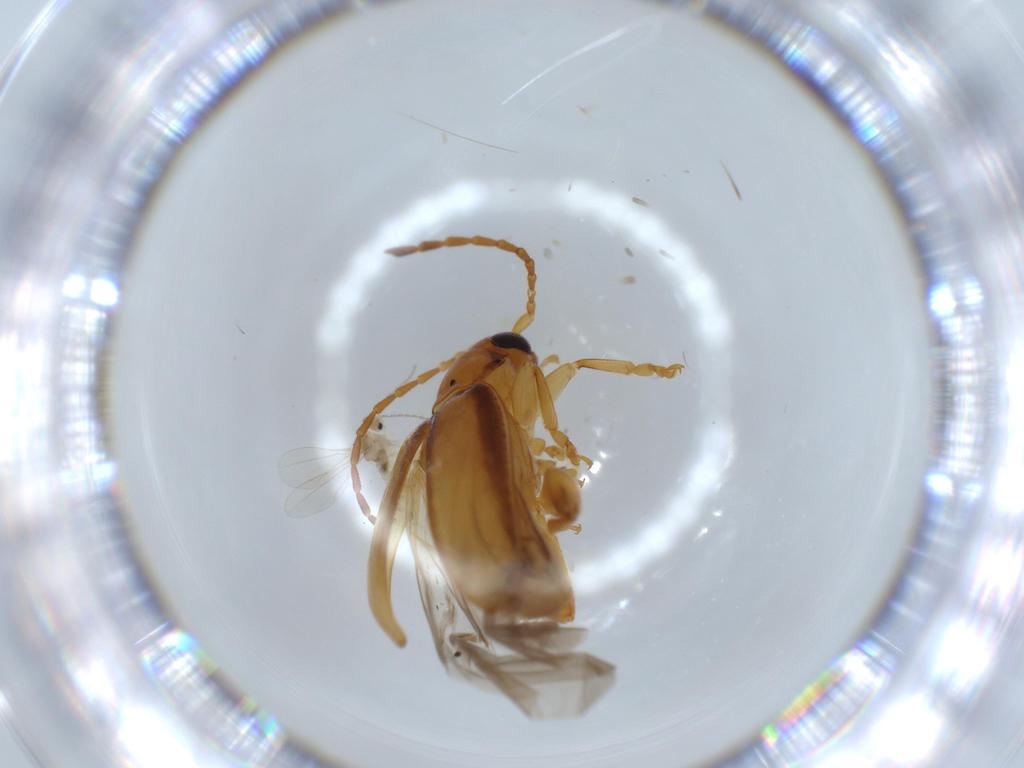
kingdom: Animalia
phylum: Arthropoda
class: Insecta
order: Coleoptera
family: Chrysomelidae
